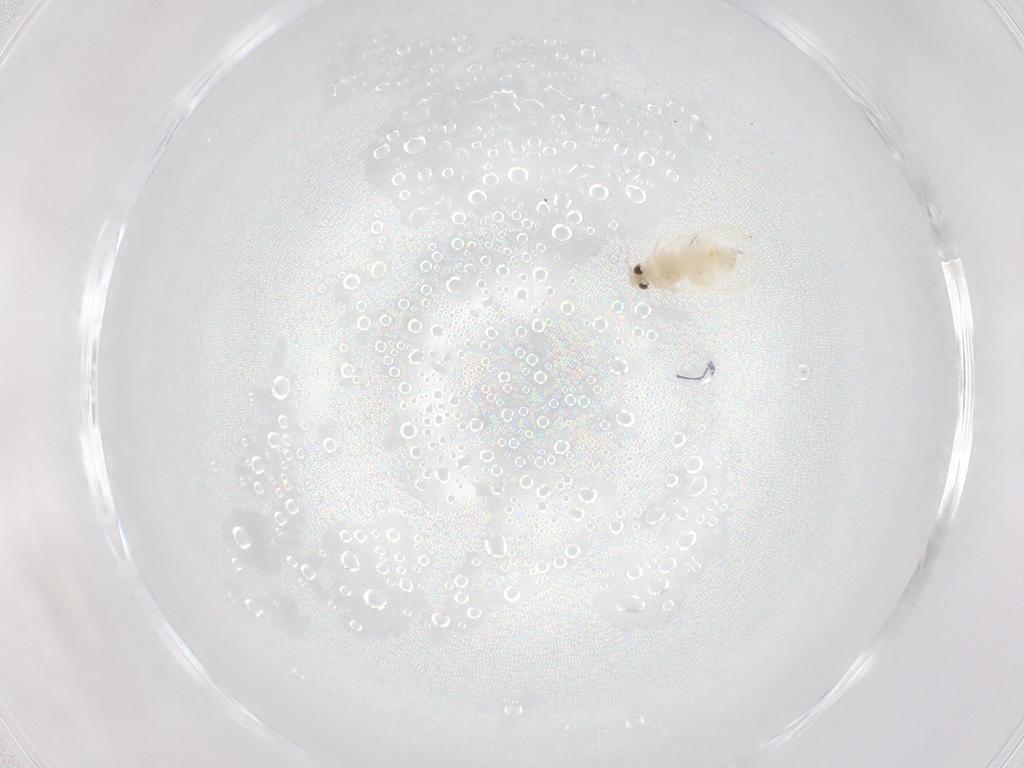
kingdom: Animalia
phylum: Arthropoda
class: Insecta
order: Hemiptera
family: Aleyrodidae
